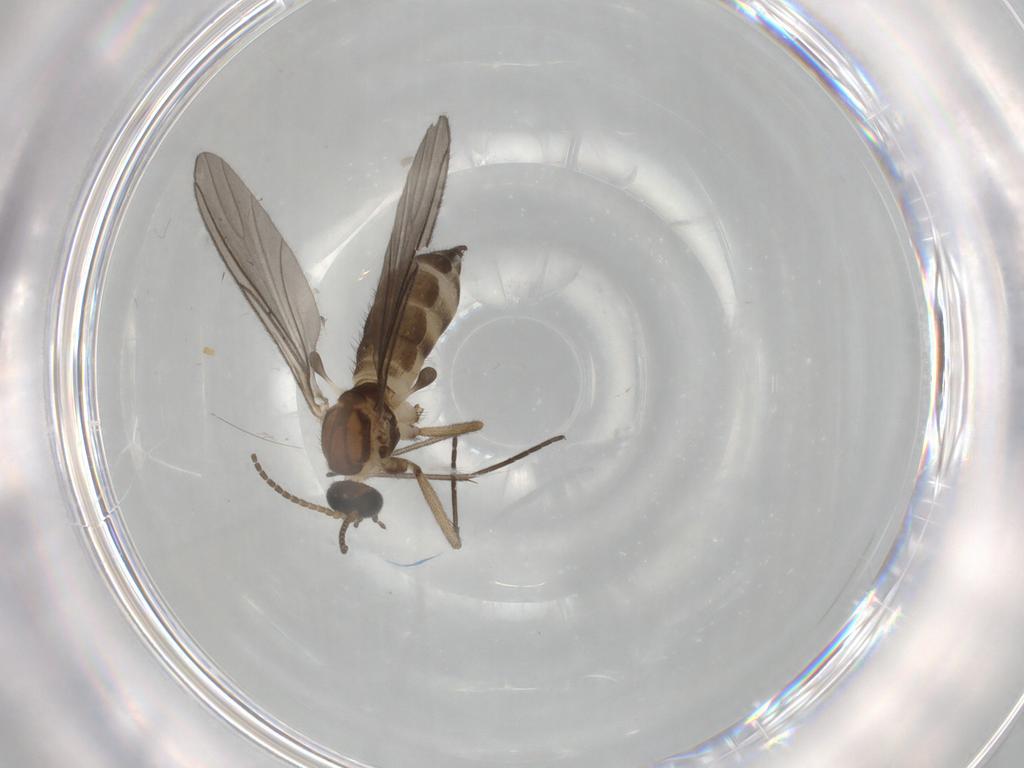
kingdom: Animalia
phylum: Arthropoda
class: Insecta
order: Diptera
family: Sciaridae
